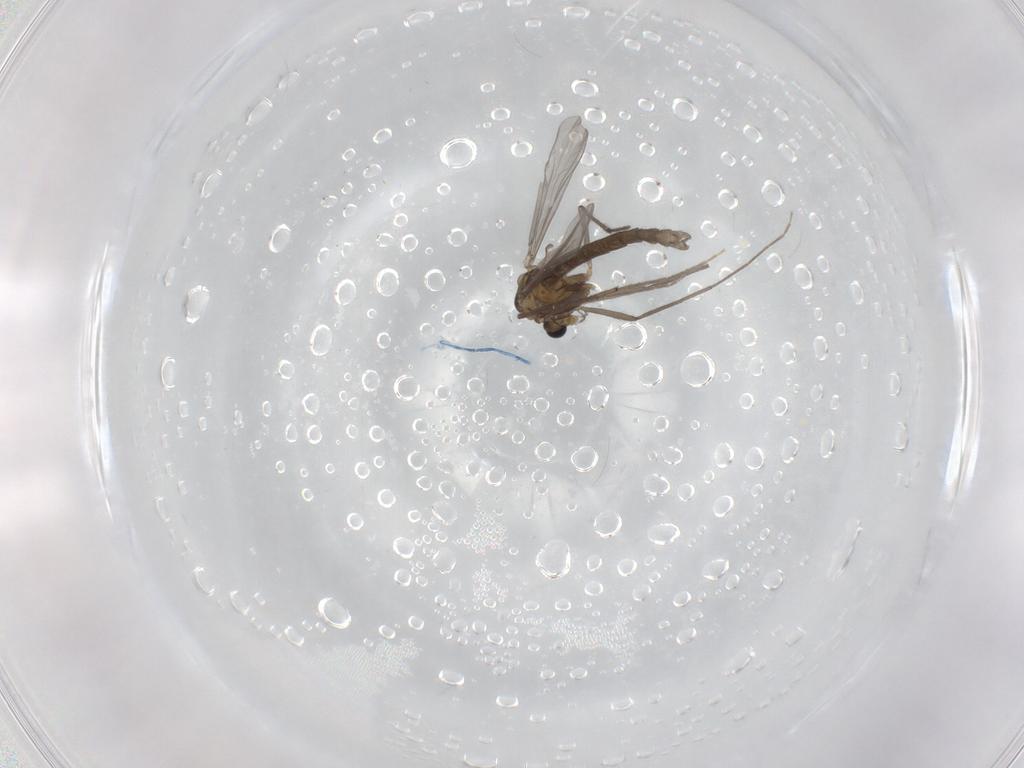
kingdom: Animalia
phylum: Arthropoda
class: Insecta
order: Diptera
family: Chironomidae
